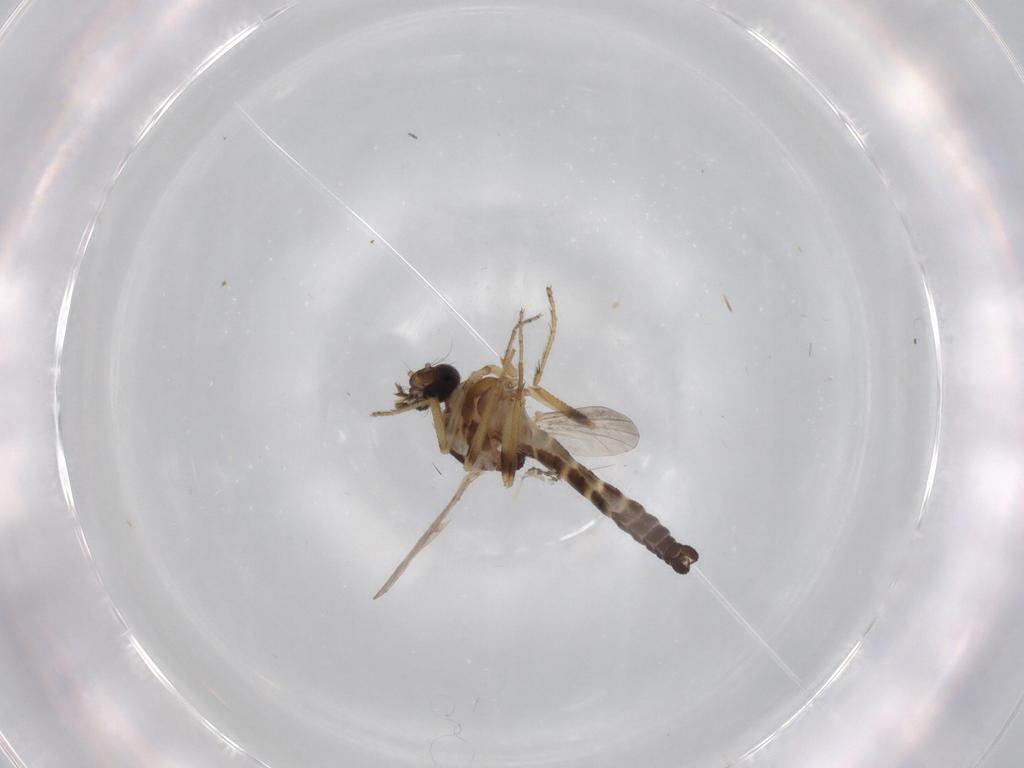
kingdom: Animalia
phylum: Arthropoda
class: Insecta
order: Diptera
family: Ceratopogonidae
